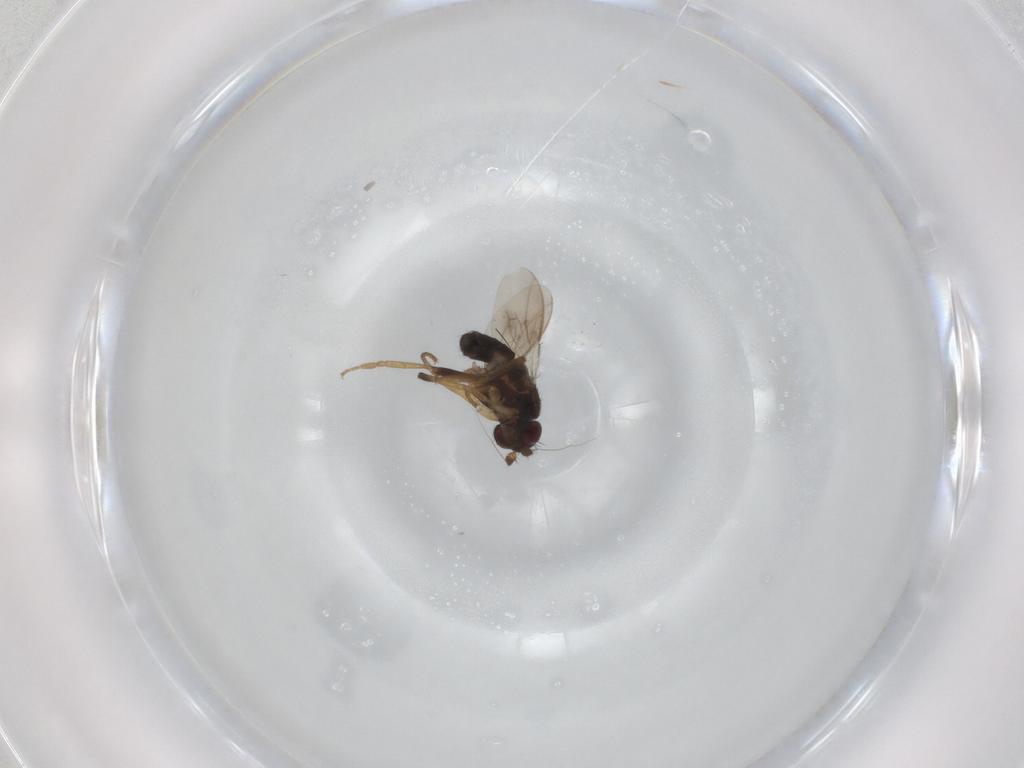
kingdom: Animalia
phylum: Arthropoda
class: Insecta
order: Diptera
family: Sphaeroceridae
